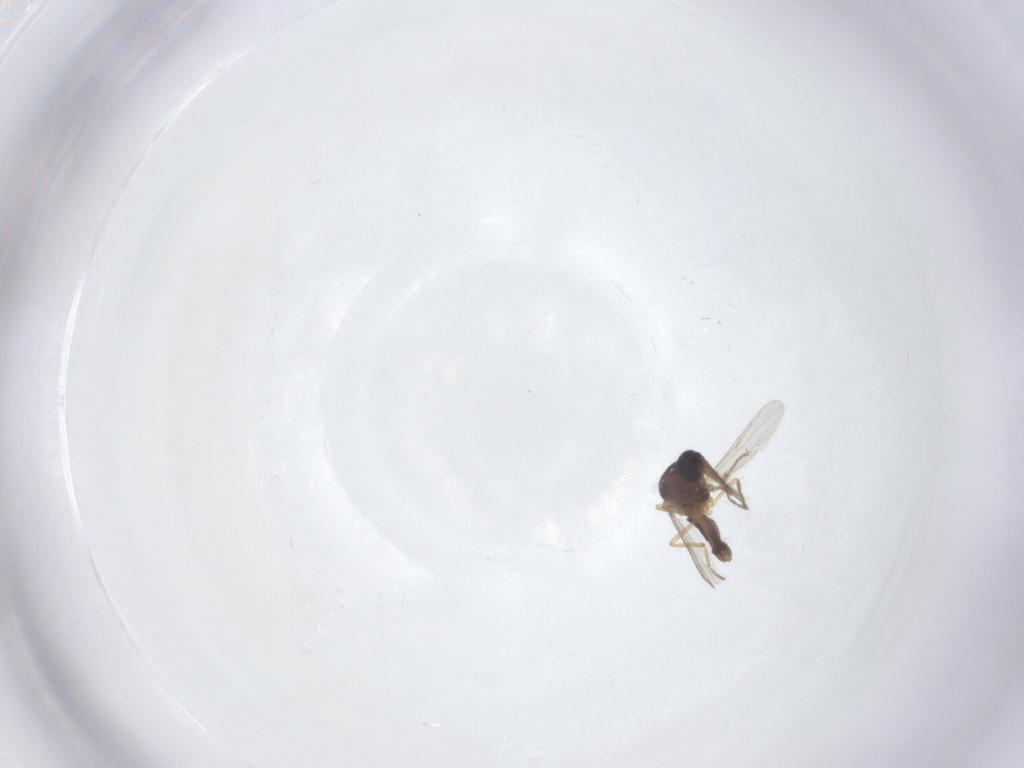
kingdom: Animalia
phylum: Arthropoda
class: Insecta
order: Diptera
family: Ceratopogonidae
